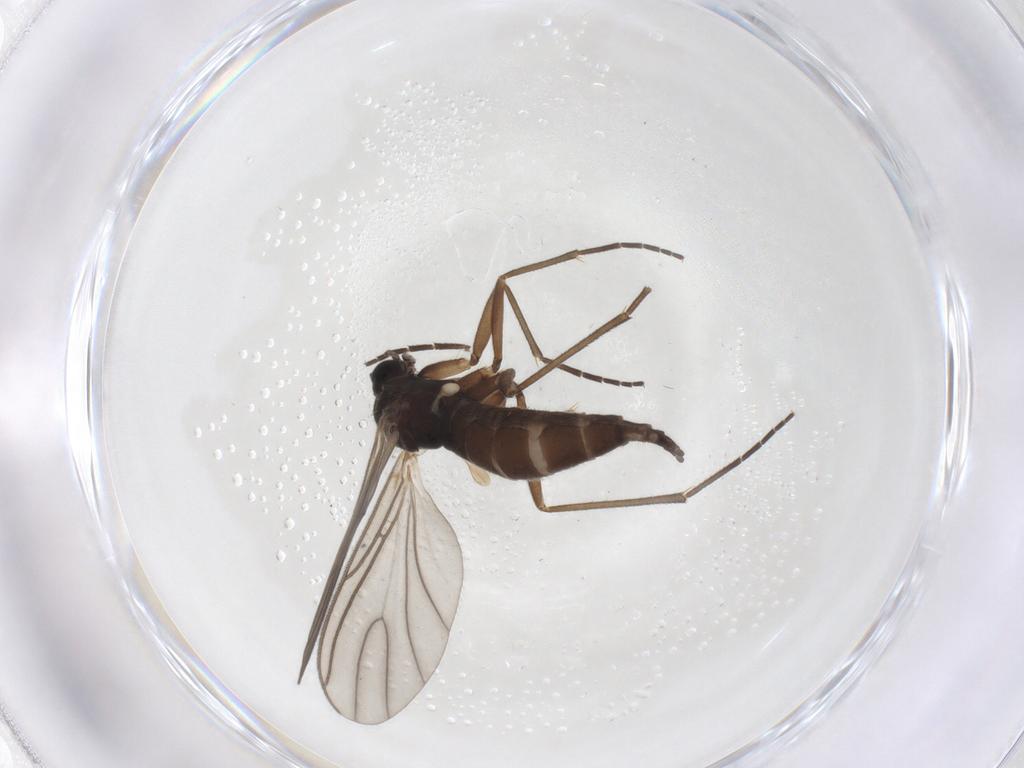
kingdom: Animalia
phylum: Arthropoda
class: Insecta
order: Diptera
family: Sciaridae
